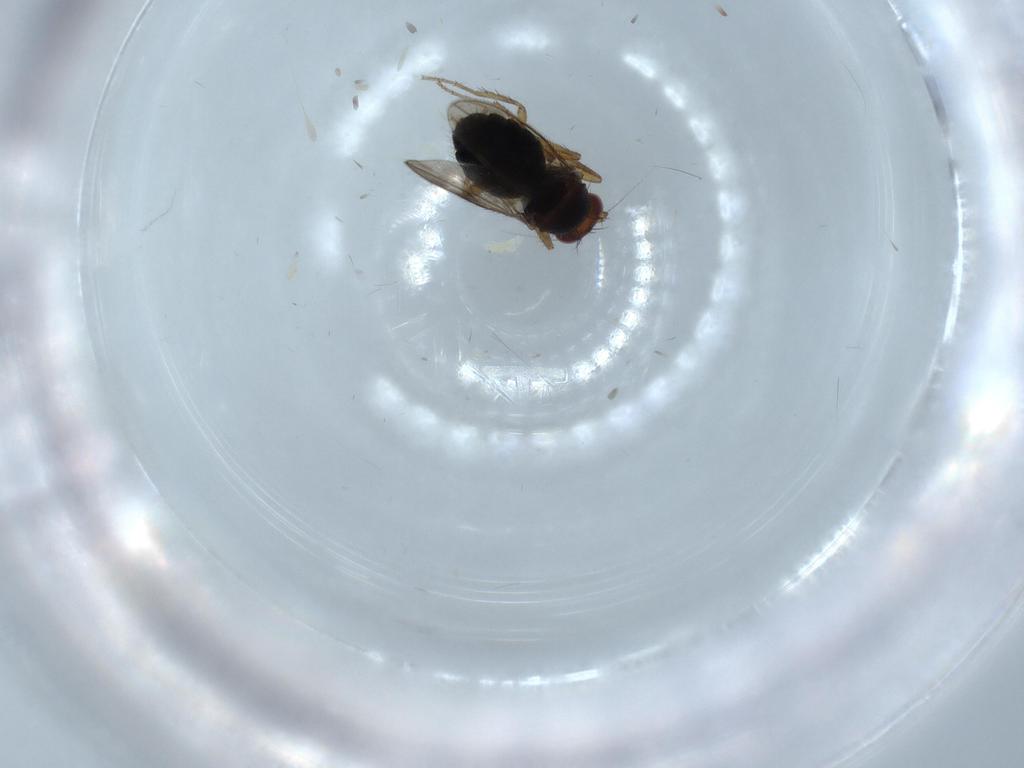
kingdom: Animalia
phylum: Arthropoda
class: Insecta
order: Diptera
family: Sphaeroceridae
